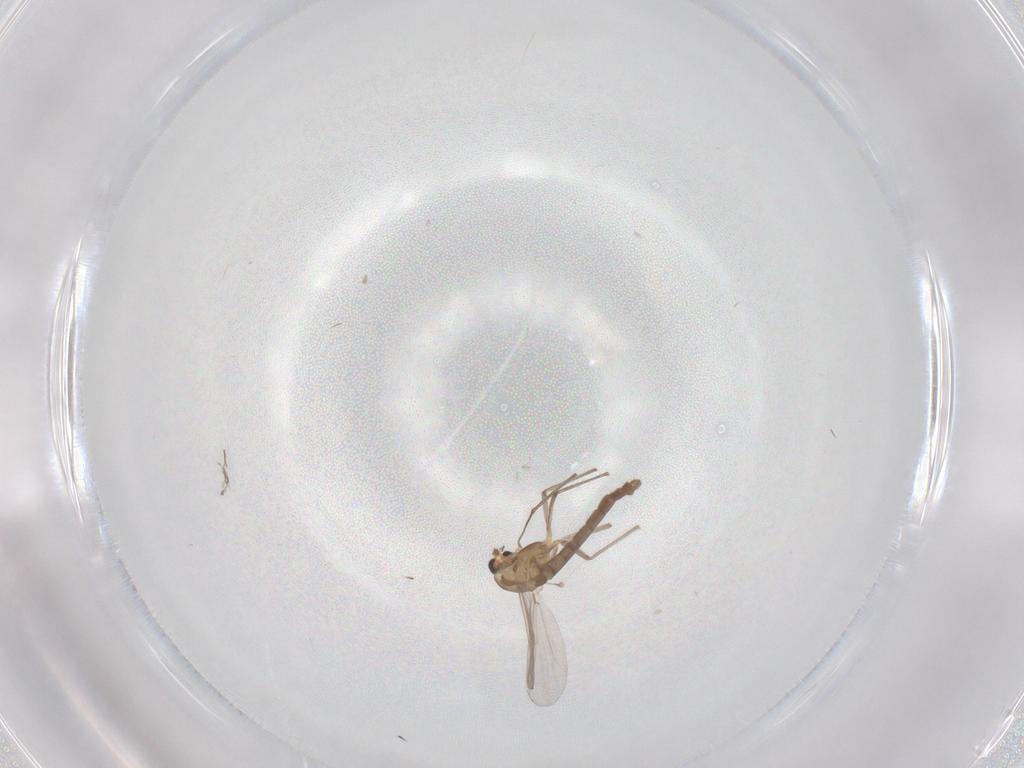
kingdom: Animalia
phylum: Arthropoda
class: Insecta
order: Diptera
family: Chironomidae
